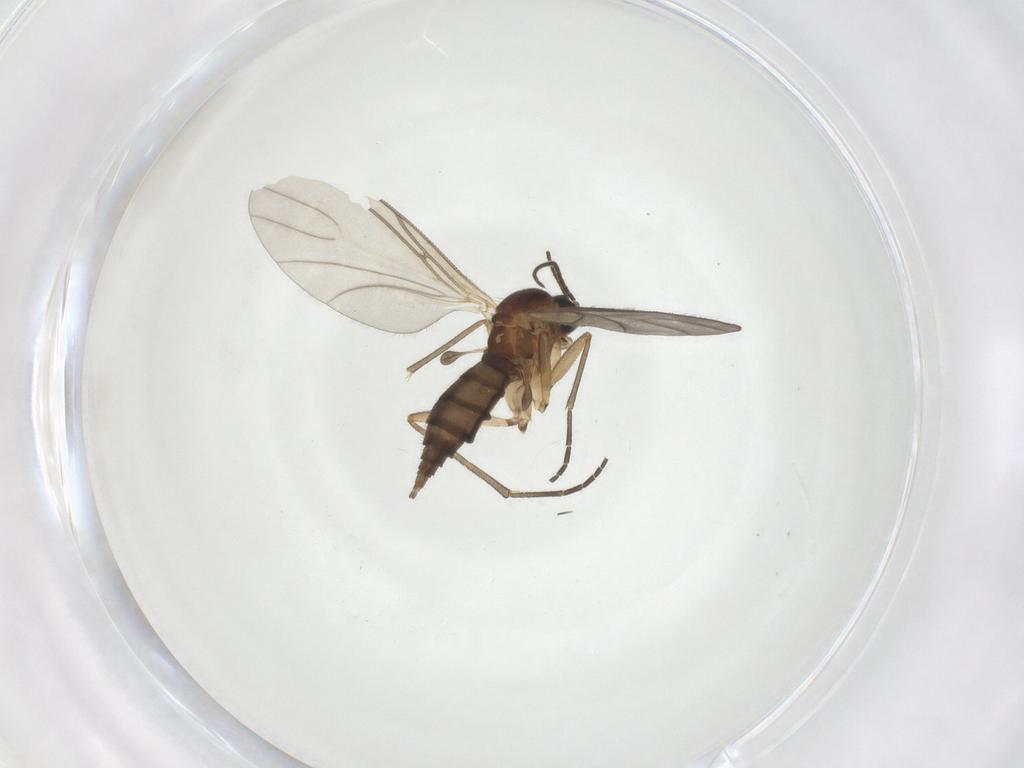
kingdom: Animalia
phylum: Arthropoda
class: Insecta
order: Diptera
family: Sciaridae
